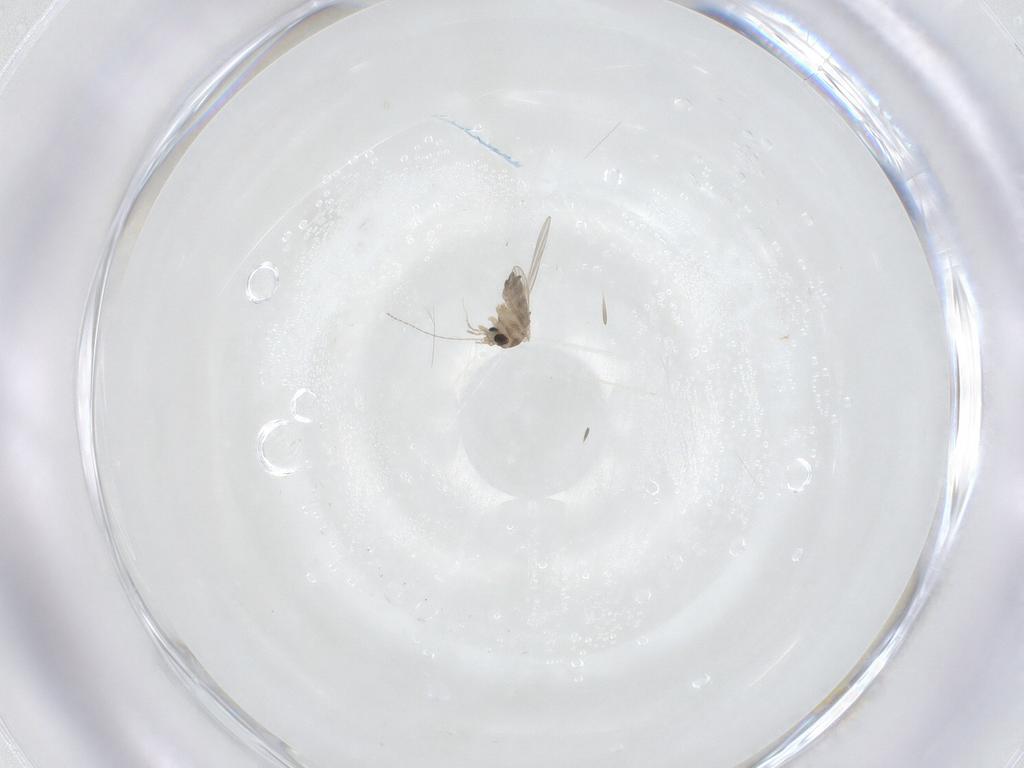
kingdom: Animalia
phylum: Arthropoda
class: Insecta
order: Diptera
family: Psychodidae
